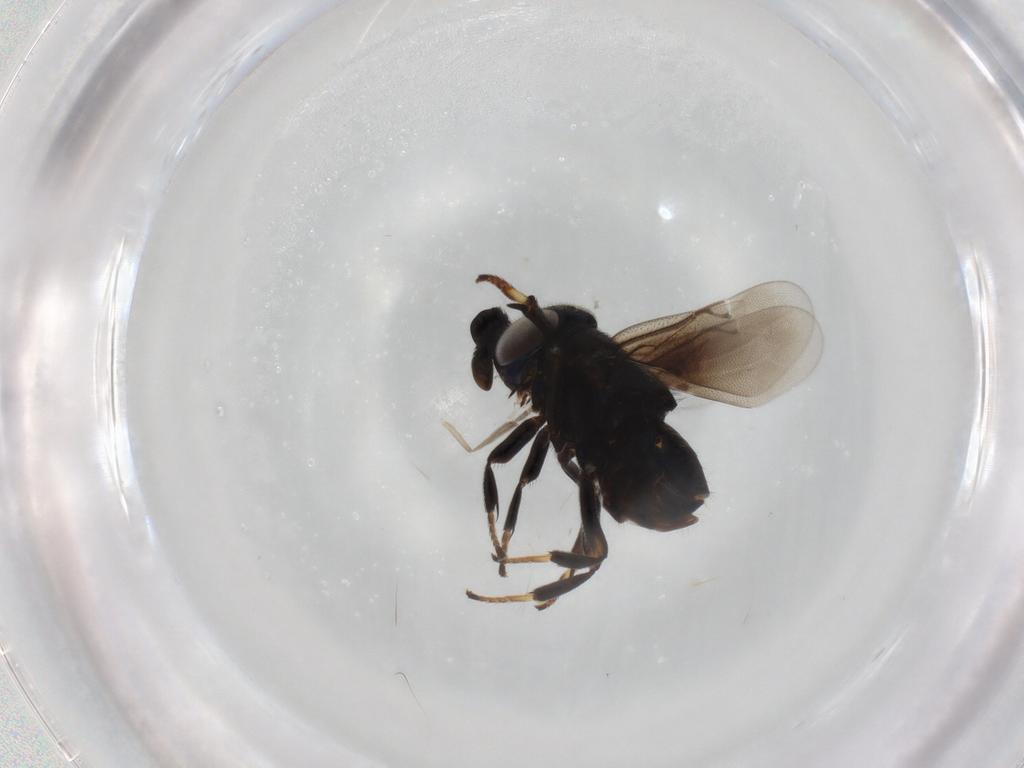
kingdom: Animalia
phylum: Arthropoda
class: Insecta
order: Hymenoptera
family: Encyrtidae
